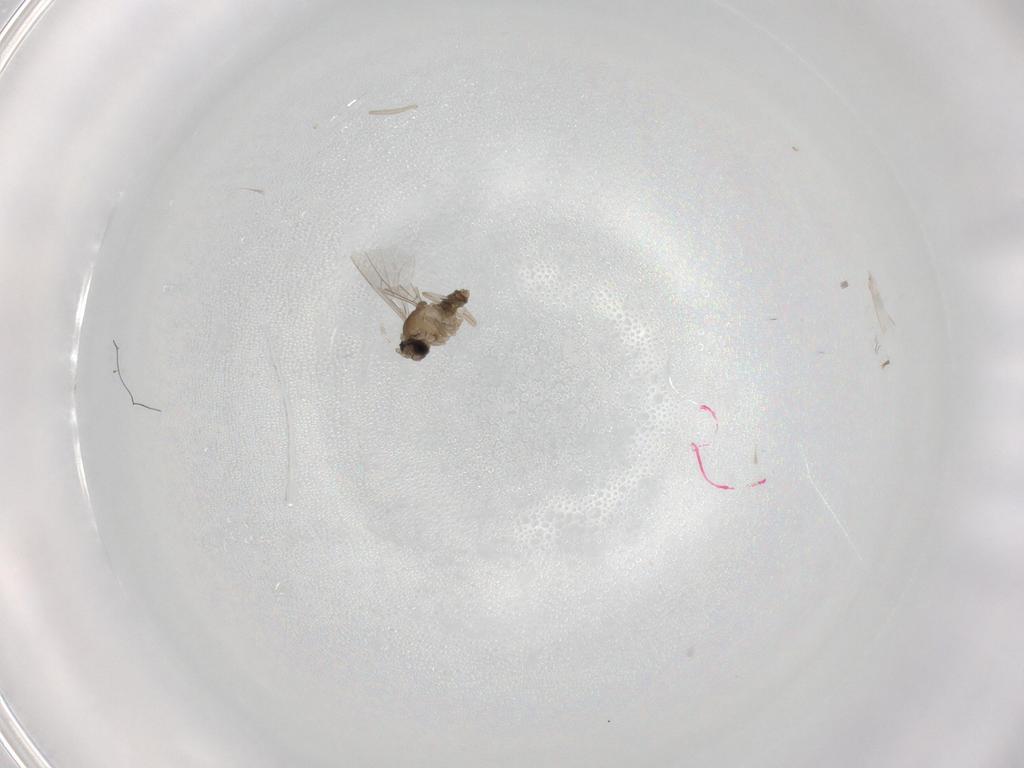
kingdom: Animalia
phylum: Arthropoda
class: Insecta
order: Diptera
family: Cecidomyiidae
